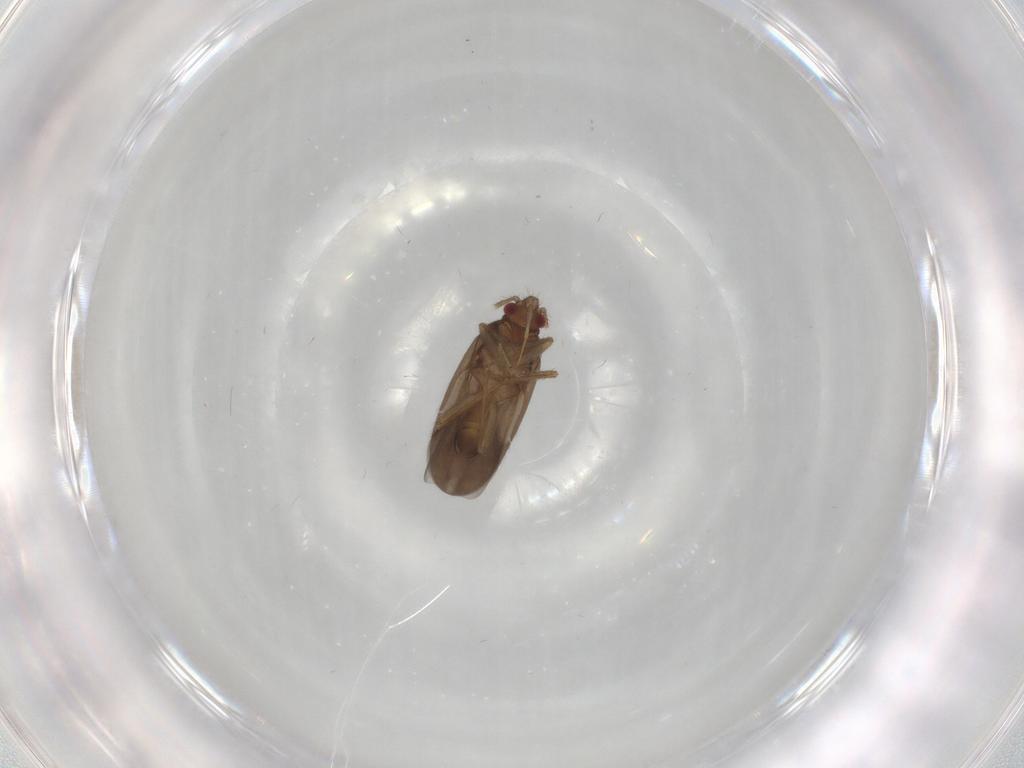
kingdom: Animalia
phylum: Arthropoda
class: Insecta
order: Hemiptera
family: Ceratocombidae
